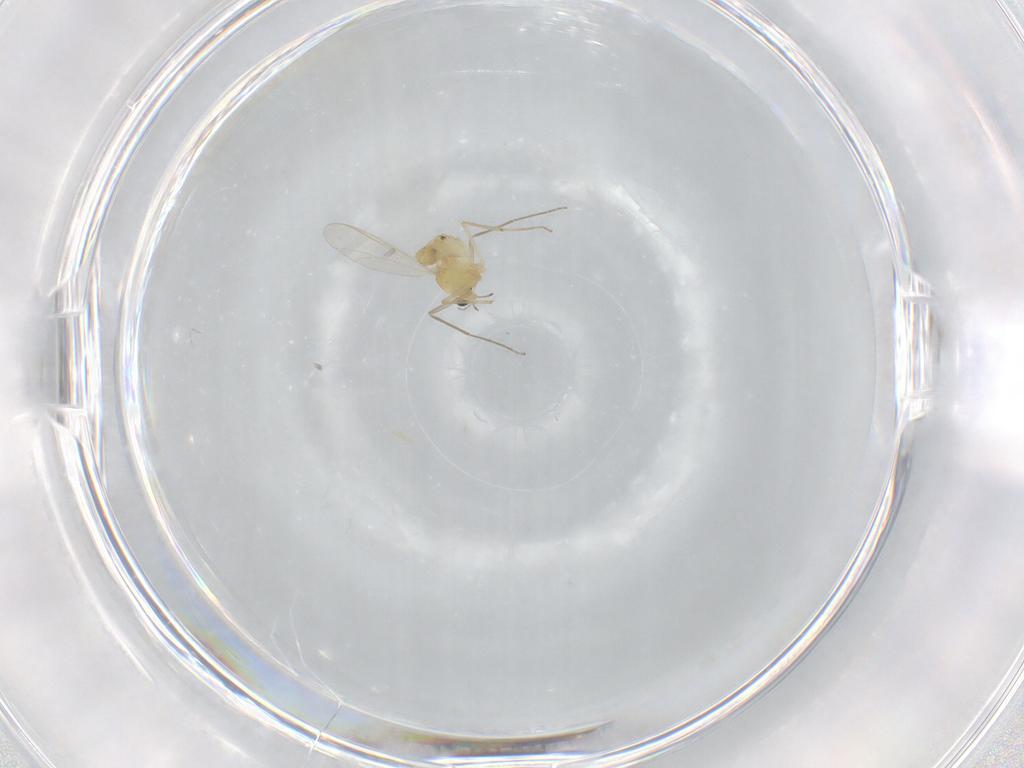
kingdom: Animalia
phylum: Arthropoda
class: Insecta
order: Diptera
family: Chironomidae
